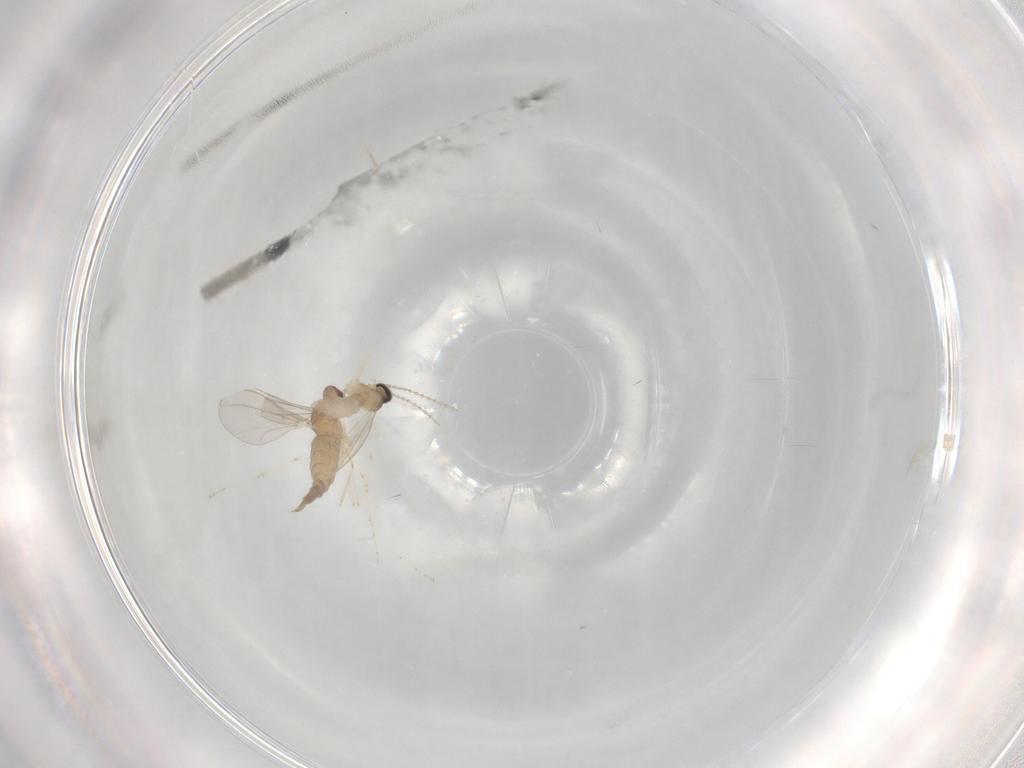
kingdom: Animalia
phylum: Arthropoda
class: Insecta
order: Diptera
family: Cecidomyiidae
